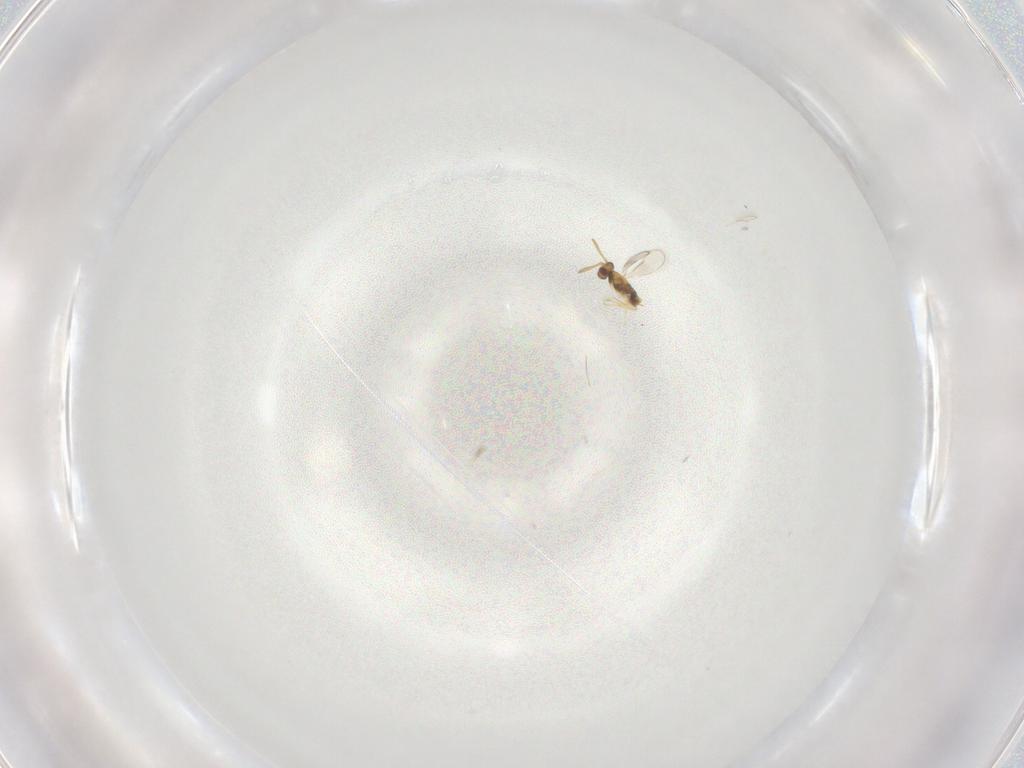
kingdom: Animalia
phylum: Arthropoda
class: Insecta
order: Hymenoptera
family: Aphelinidae
